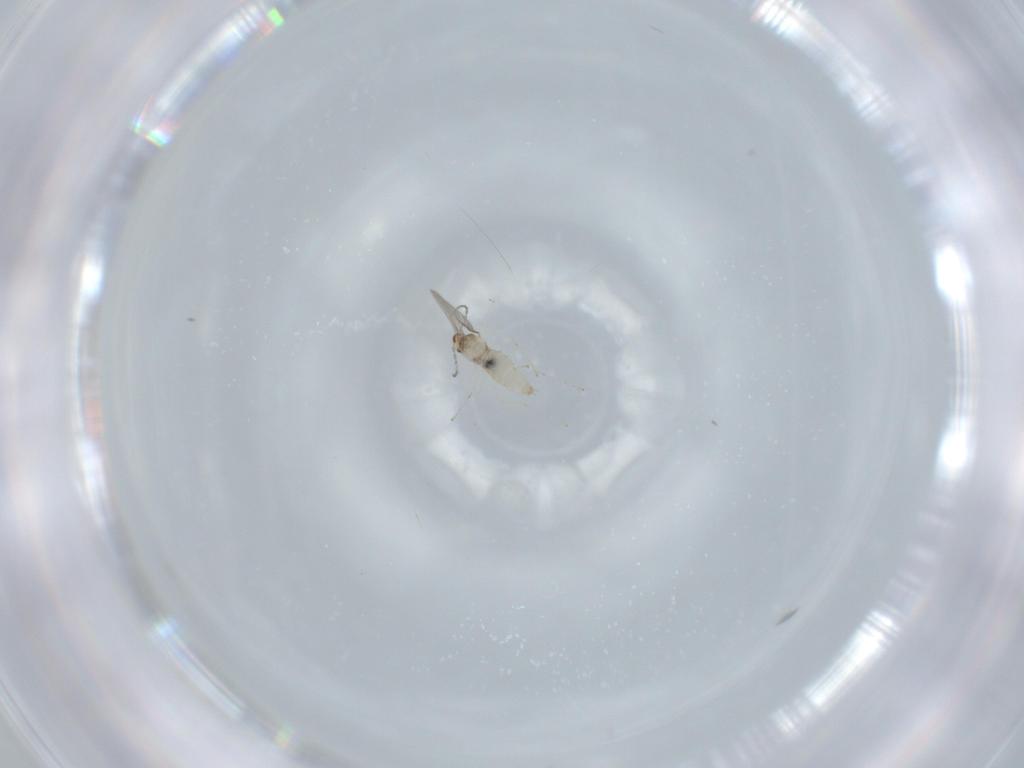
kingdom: Animalia
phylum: Arthropoda
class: Insecta
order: Diptera
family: Cecidomyiidae
